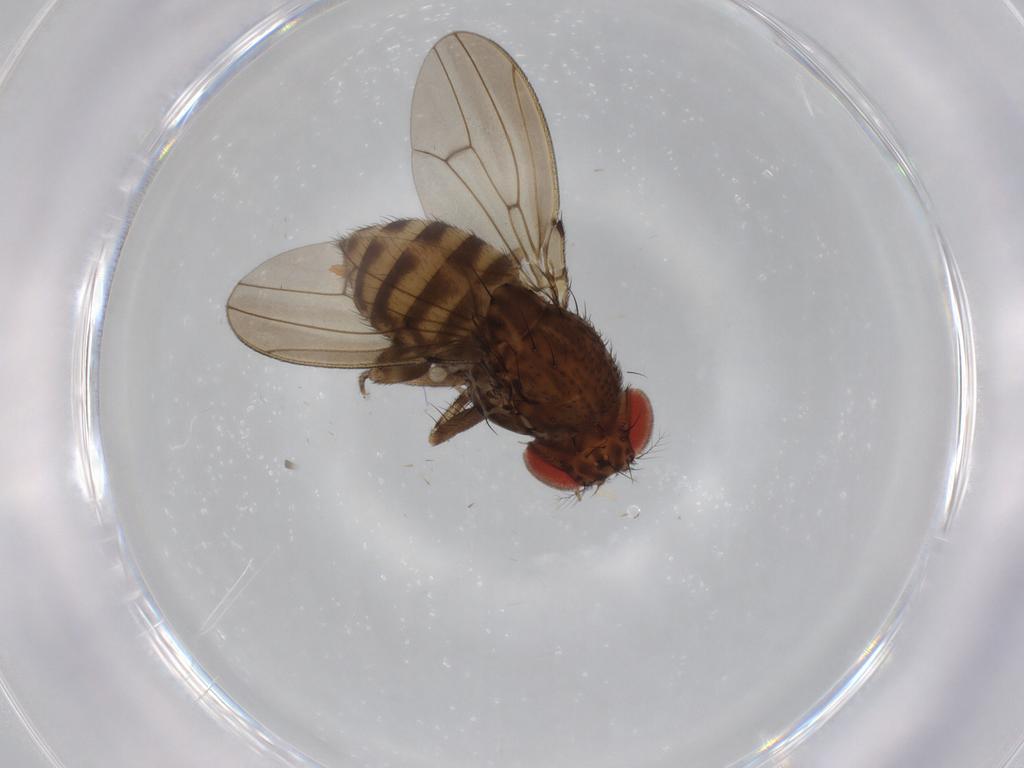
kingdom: Animalia
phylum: Arthropoda
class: Insecta
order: Diptera
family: Drosophilidae
